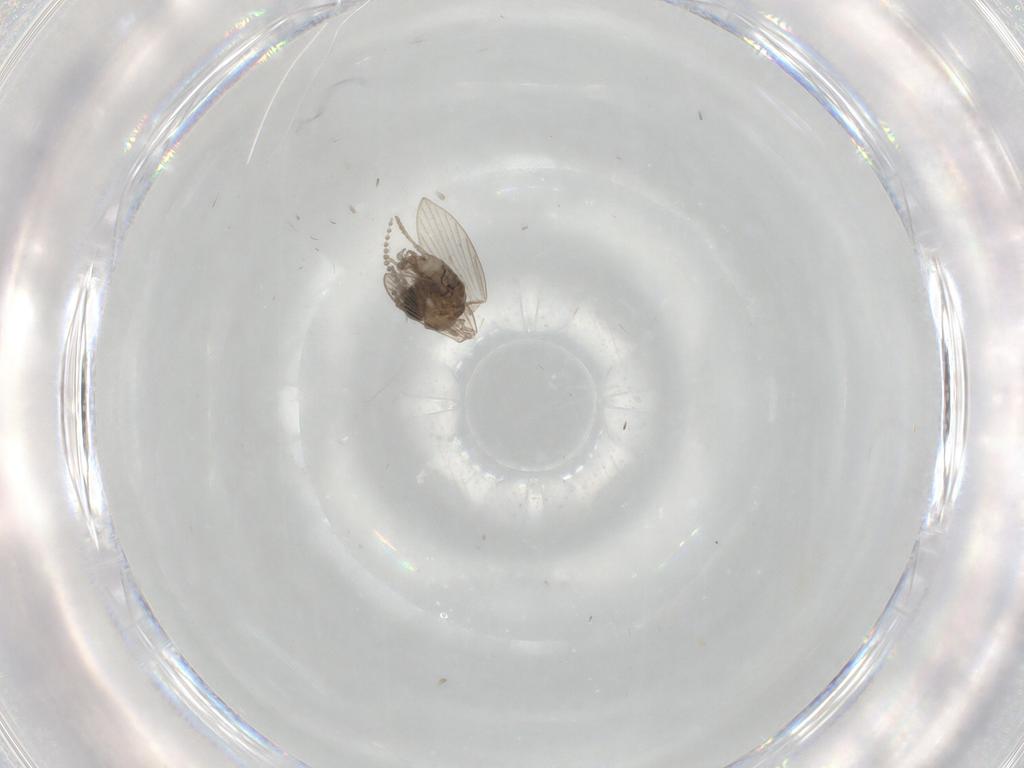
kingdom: Animalia
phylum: Arthropoda
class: Insecta
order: Diptera
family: Psychodidae
